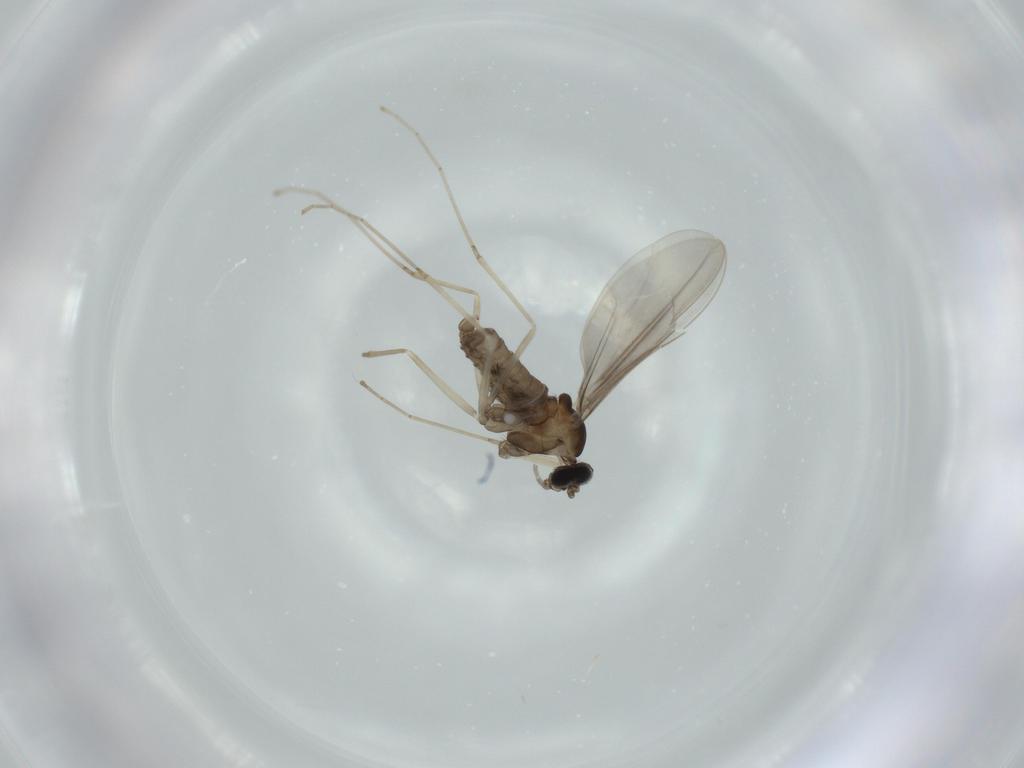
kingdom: Animalia
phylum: Arthropoda
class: Insecta
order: Diptera
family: Cecidomyiidae
